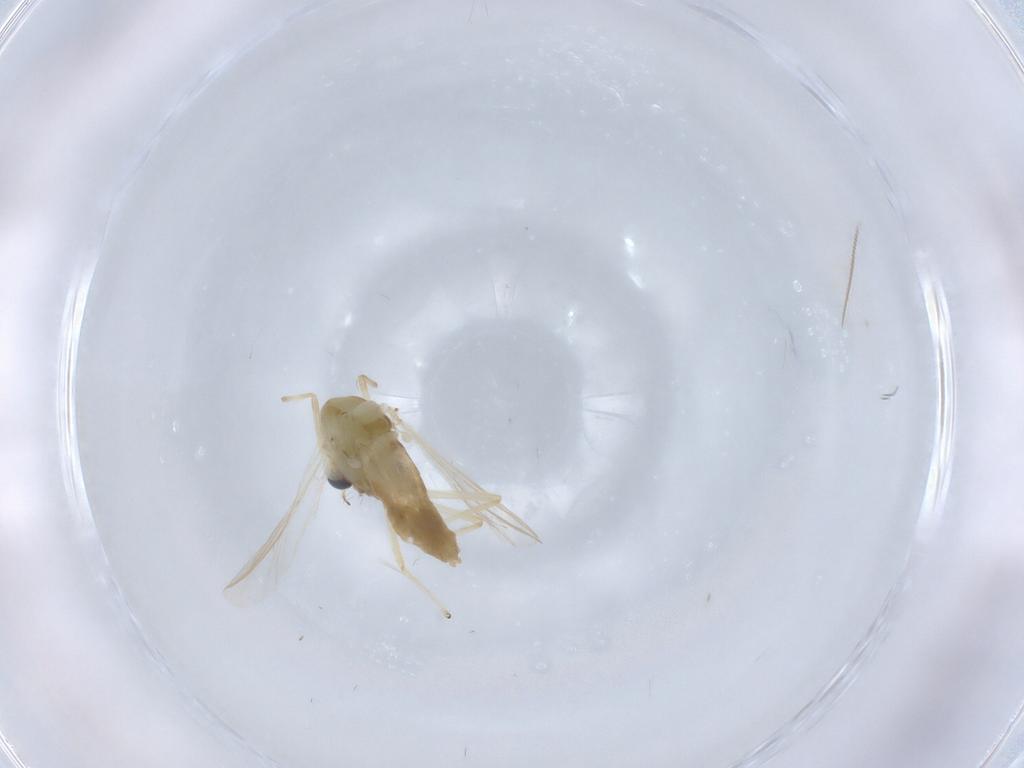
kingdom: Animalia
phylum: Arthropoda
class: Insecta
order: Diptera
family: Chironomidae
